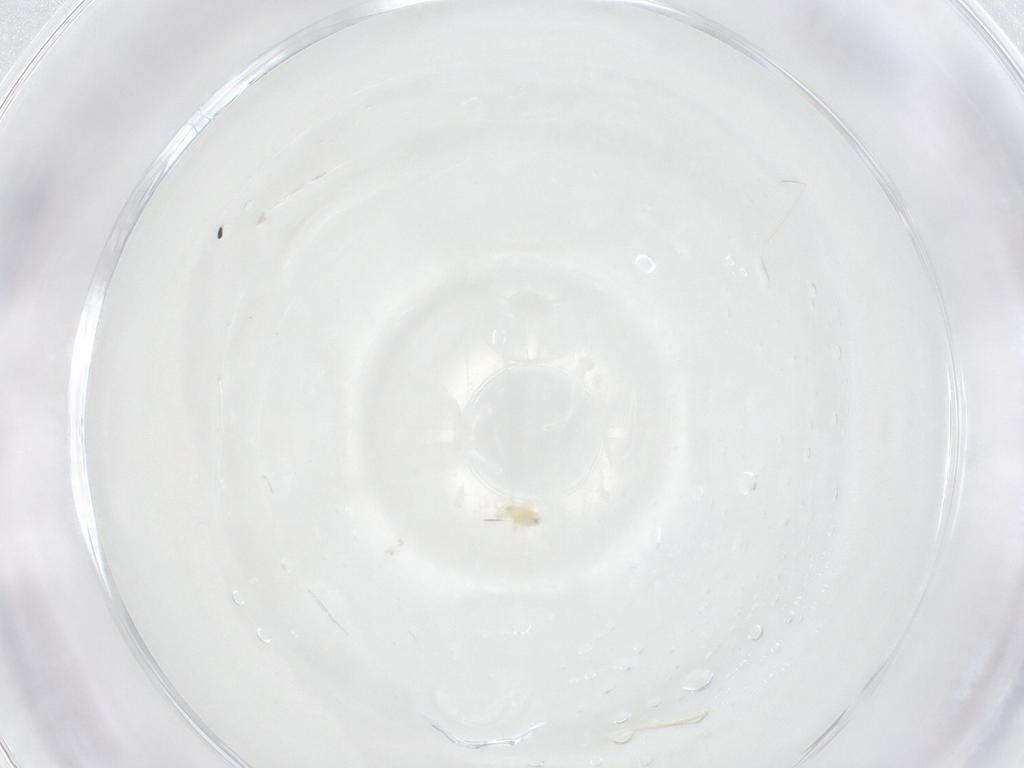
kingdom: Animalia
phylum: Arthropoda
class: Arachnida
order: Mesostigmata
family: Phytoseiidae
